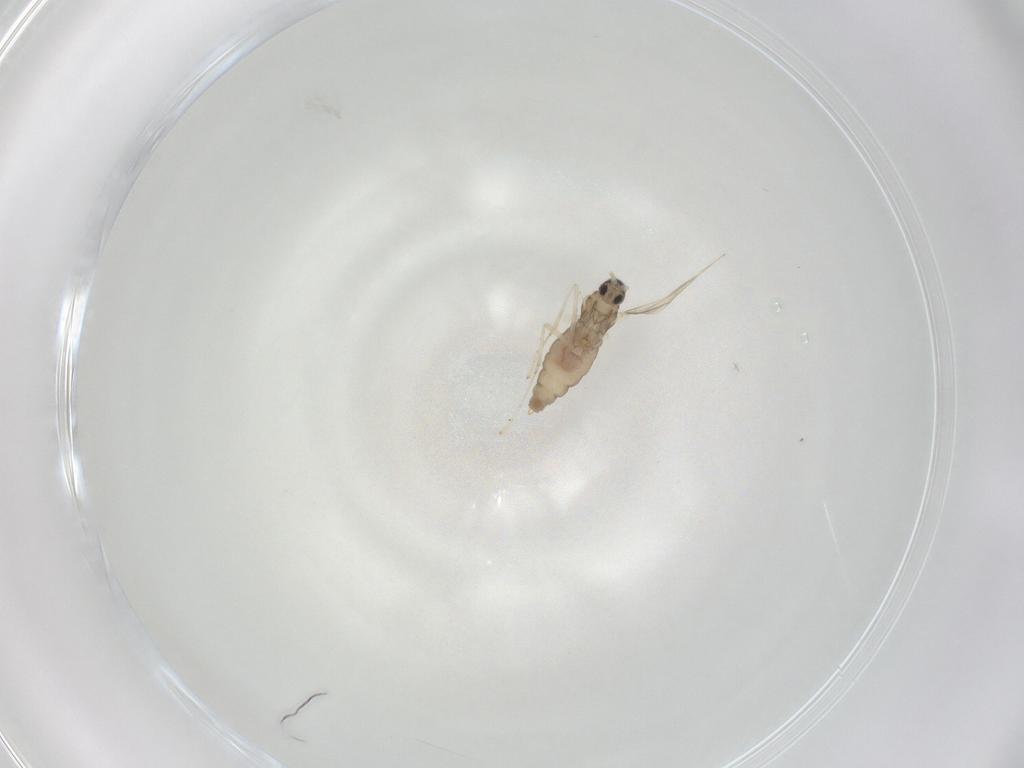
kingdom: Animalia
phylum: Arthropoda
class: Insecta
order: Diptera
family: Cecidomyiidae
